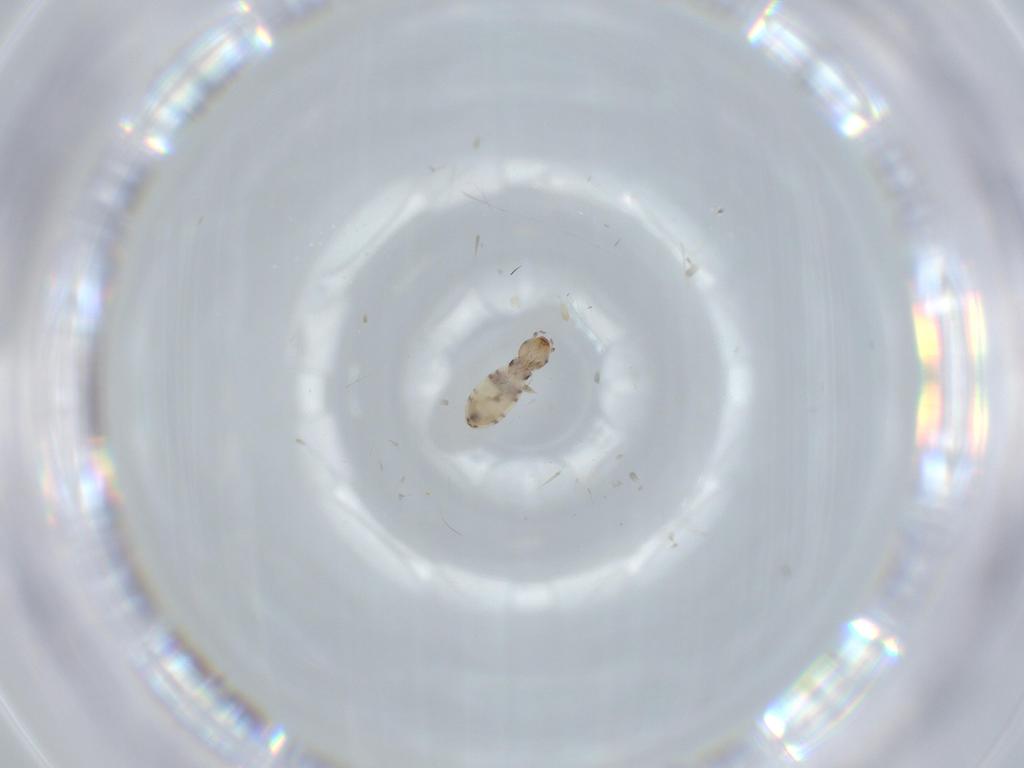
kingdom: Animalia
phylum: Arthropoda
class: Insecta
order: Psocodea
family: Liposcelididae
